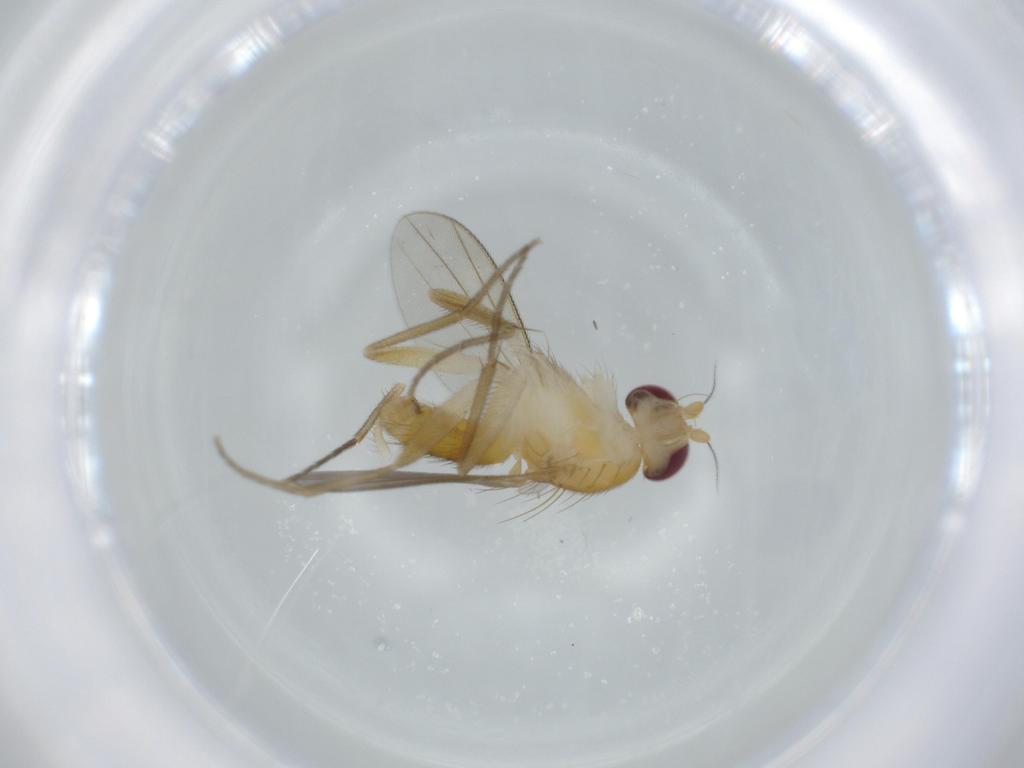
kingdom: Animalia
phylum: Arthropoda
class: Insecta
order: Diptera
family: Clusiidae
